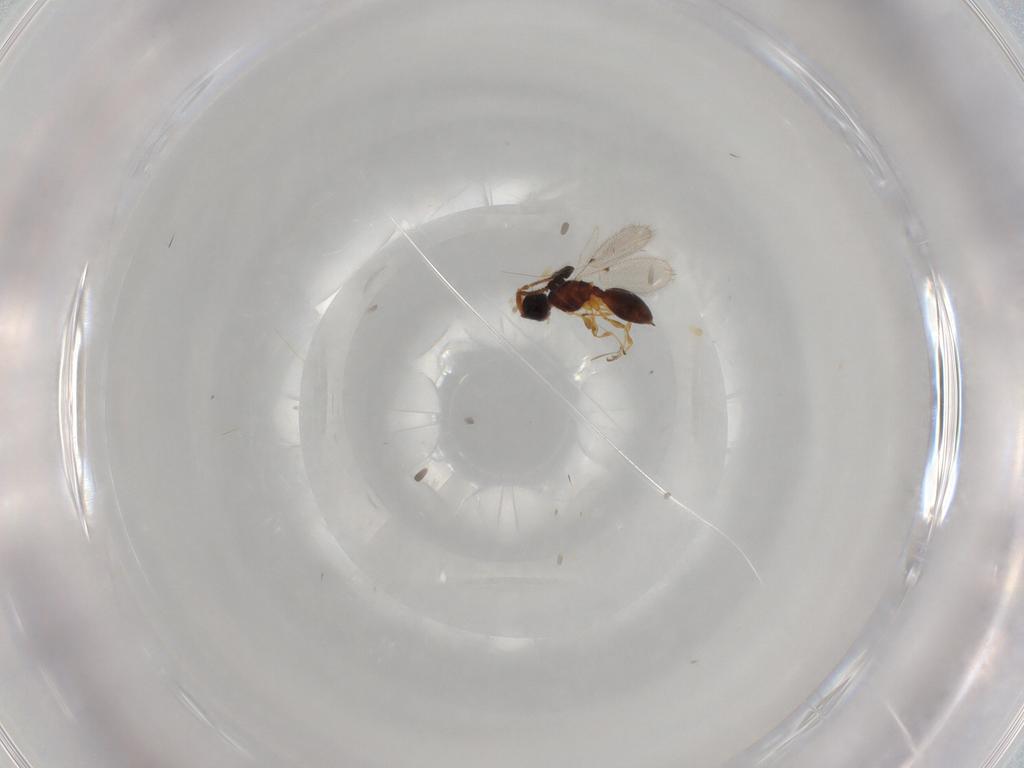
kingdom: Animalia
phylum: Arthropoda
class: Insecta
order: Hymenoptera
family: Diapriidae
